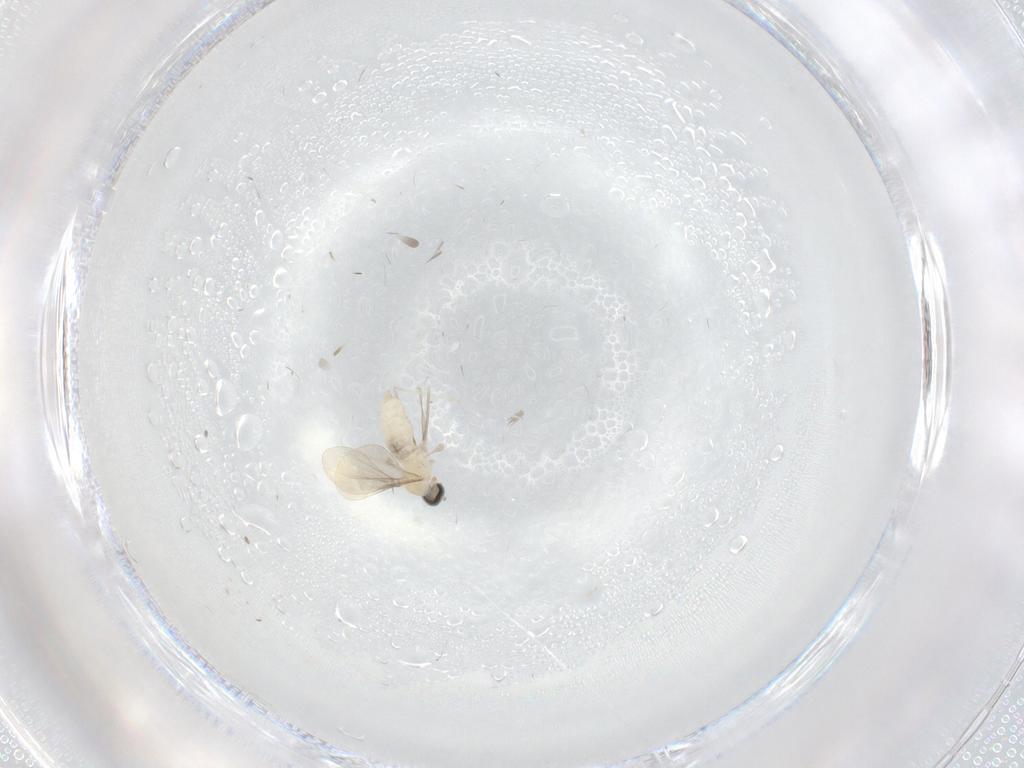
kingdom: Animalia
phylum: Arthropoda
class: Insecta
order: Diptera
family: Cecidomyiidae
